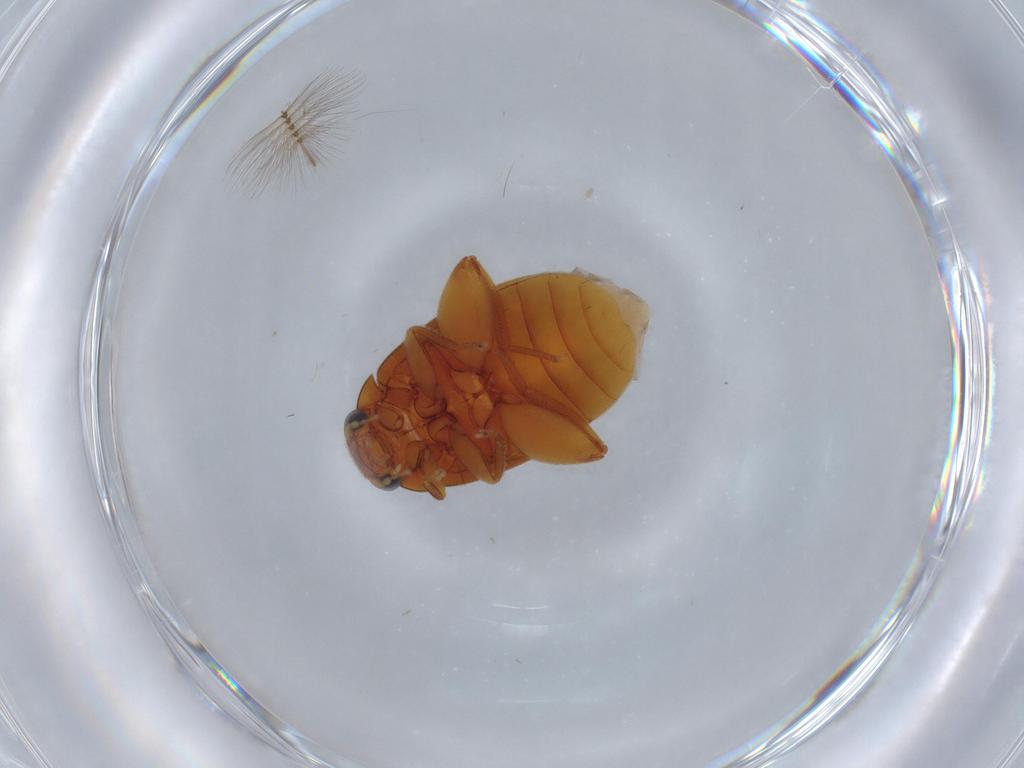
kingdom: Animalia
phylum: Arthropoda
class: Insecta
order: Coleoptera
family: Scirtidae
